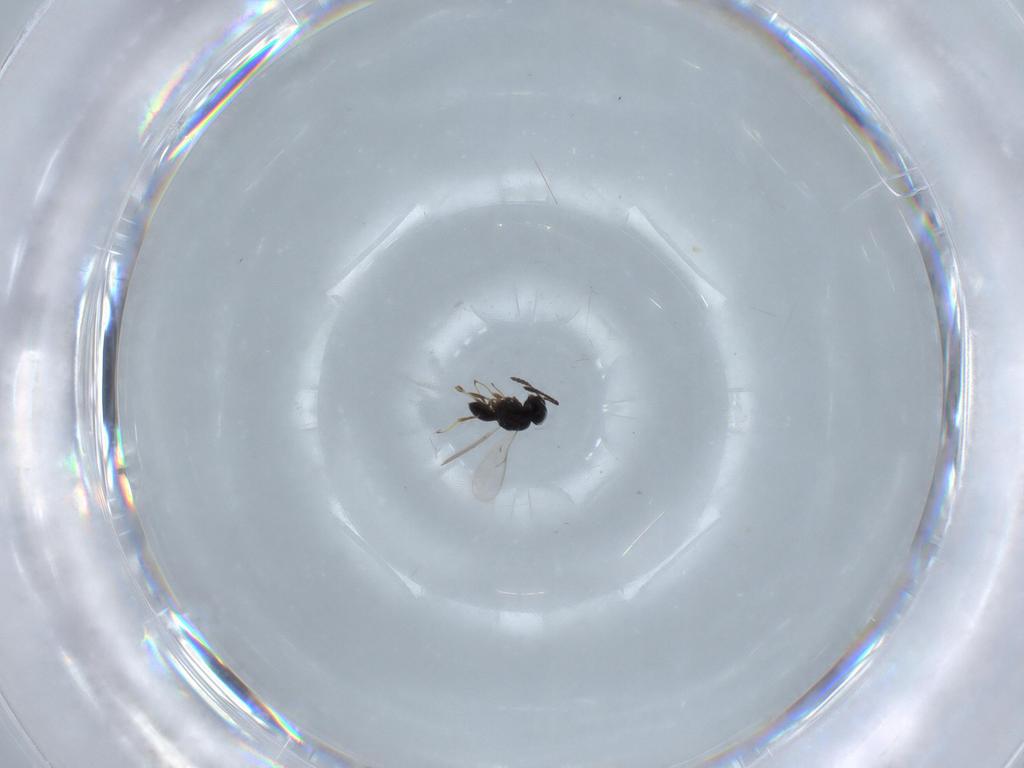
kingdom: Animalia
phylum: Arthropoda
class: Insecta
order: Hymenoptera
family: Scelionidae
